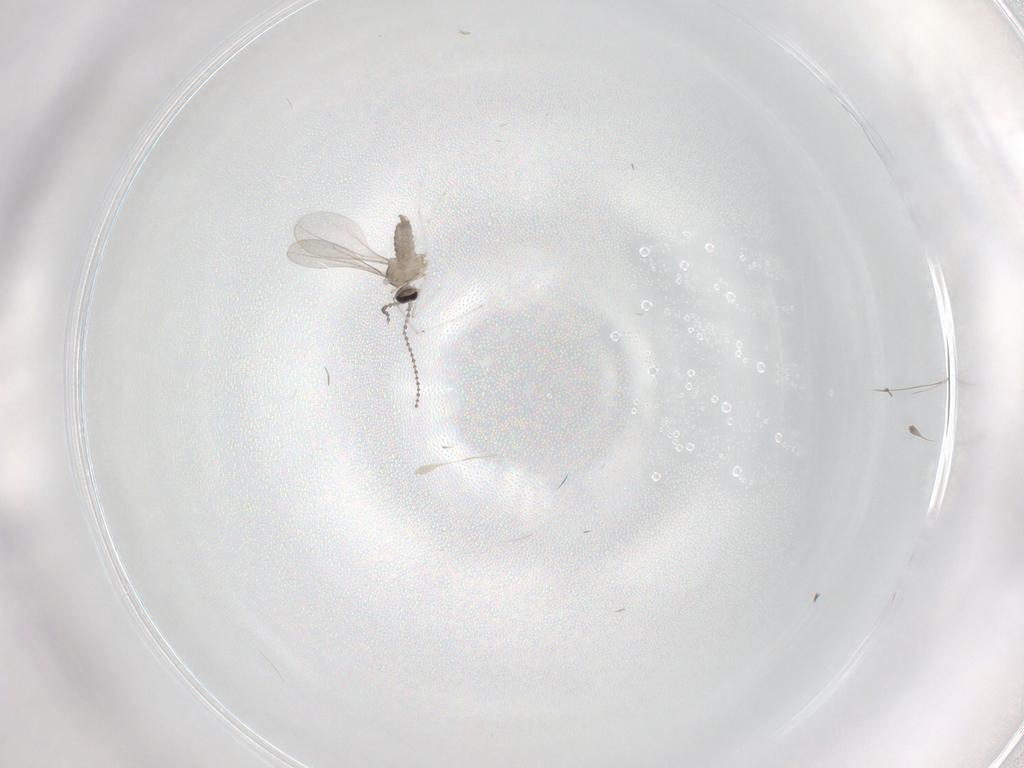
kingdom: Animalia
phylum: Arthropoda
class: Insecta
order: Diptera
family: Cecidomyiidae
